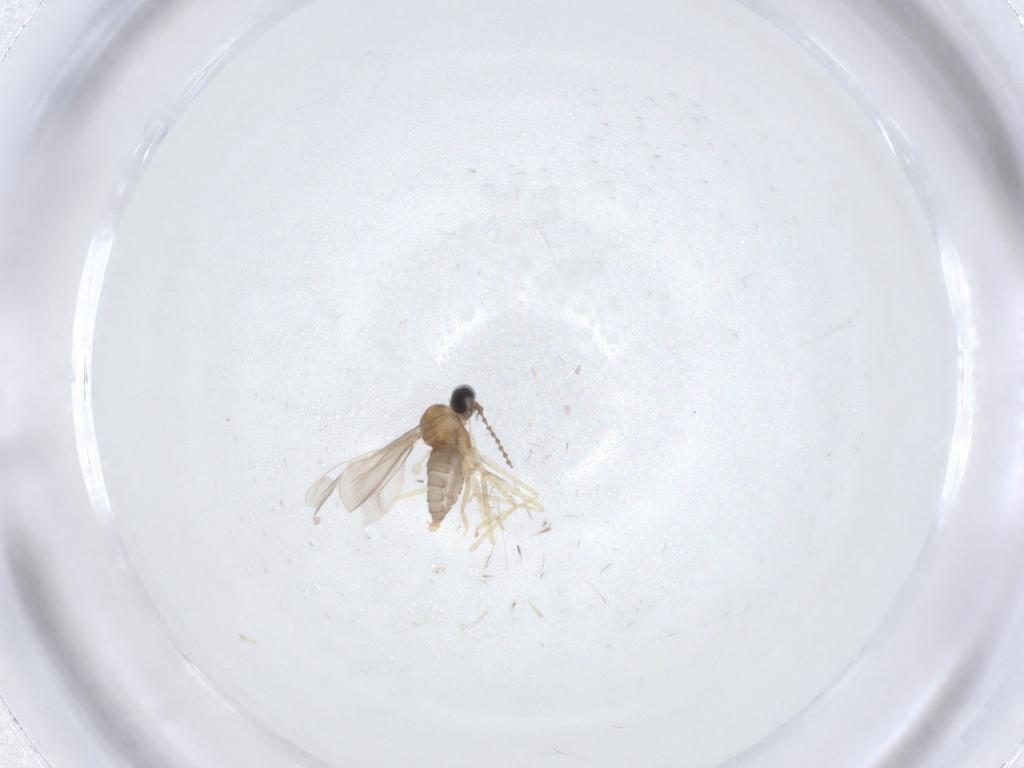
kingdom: Animalia
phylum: Arthropoda
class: Insecta
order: Diptera
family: Cecidomyiidae
